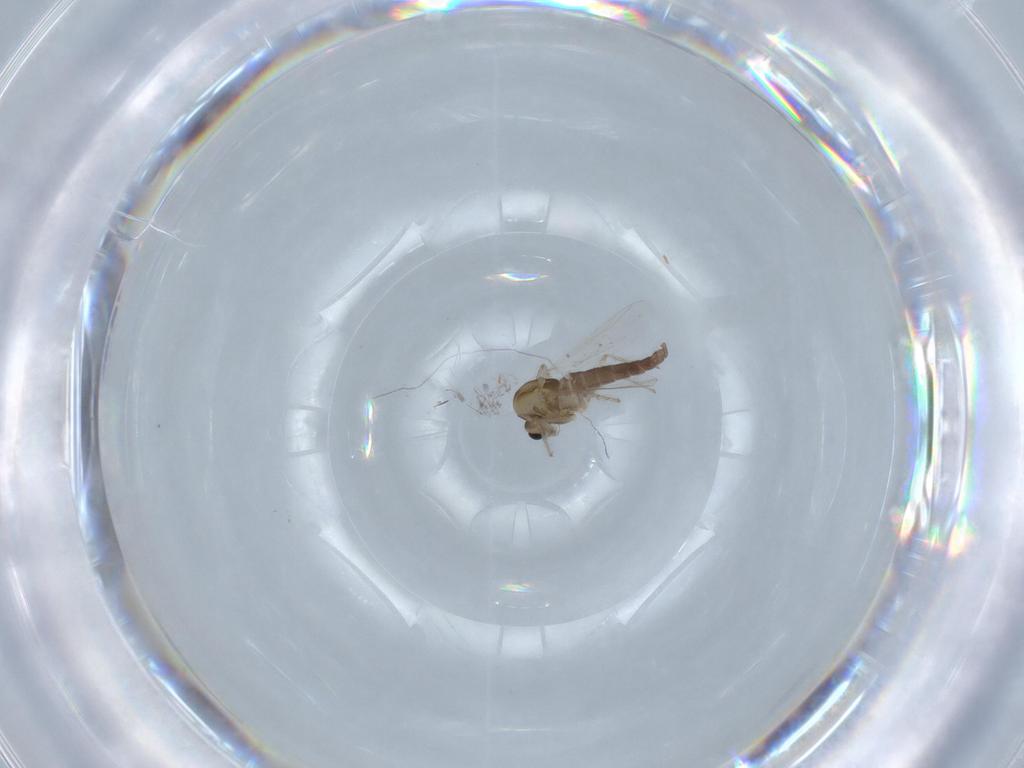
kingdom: Animalia
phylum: Arthropoda
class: Insecta
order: Diptera
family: Chironomidae
